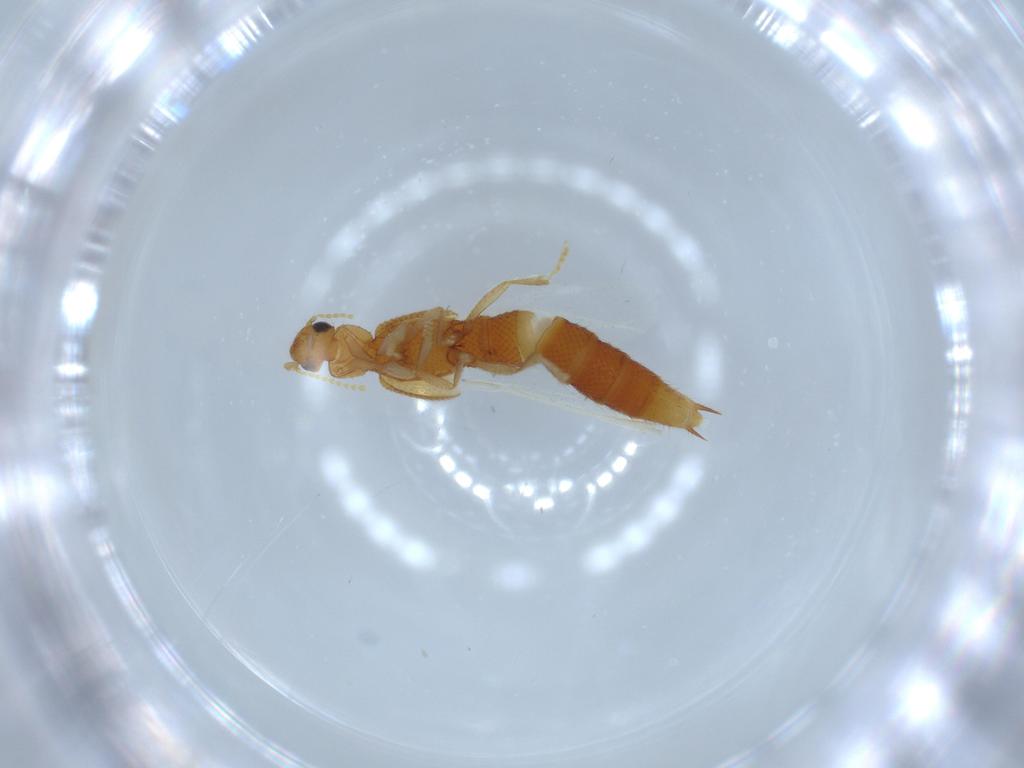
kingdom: Animalia
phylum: Arthropoda
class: Insecta
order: Coleoptera
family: Staphylinidae
